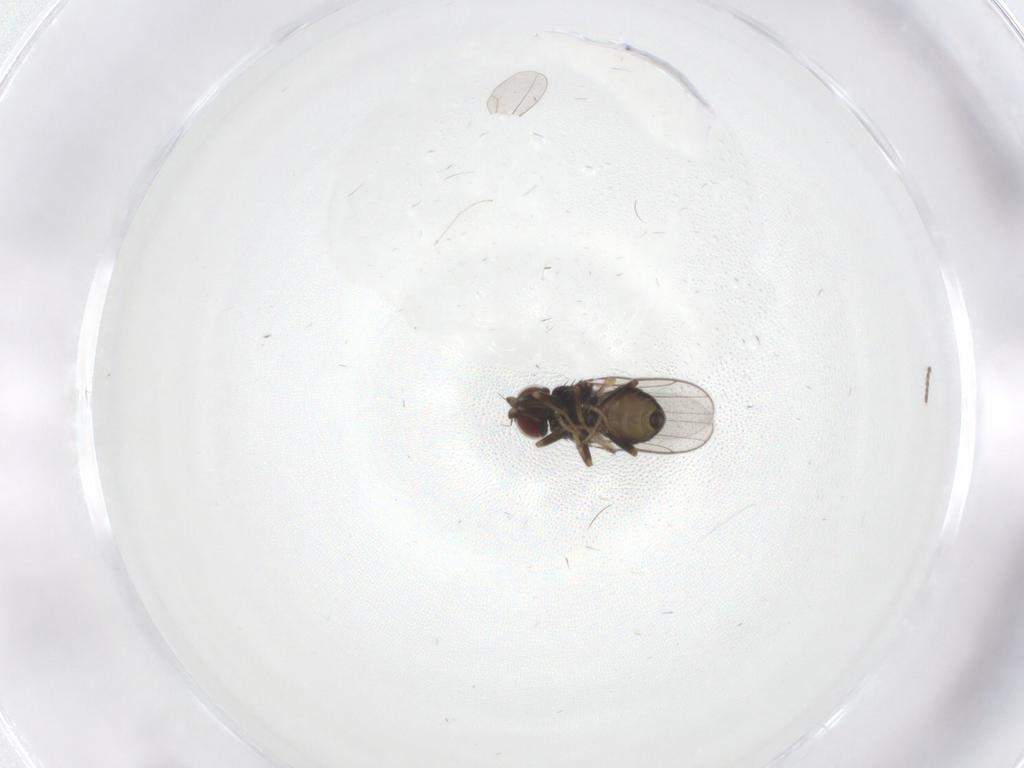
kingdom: Animalia
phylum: Arthropoda
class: Insecta
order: Diptera
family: Chloropidae
